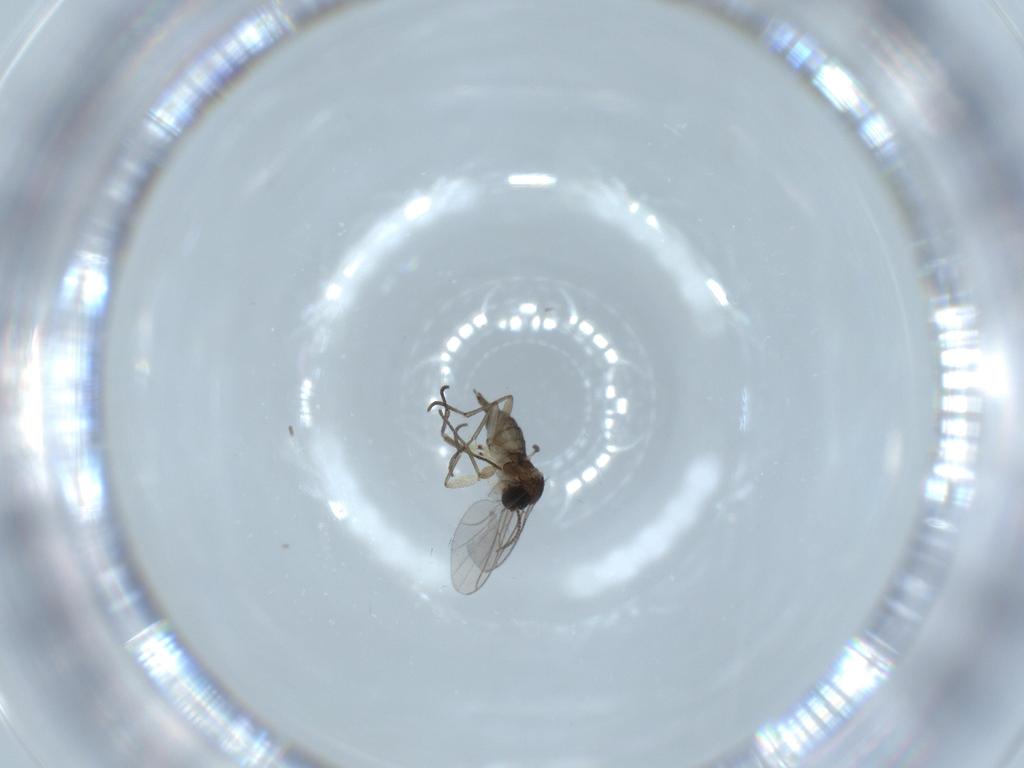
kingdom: Animalia
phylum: Arthropoda
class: Insecta
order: Diptera
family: Sciaridae
